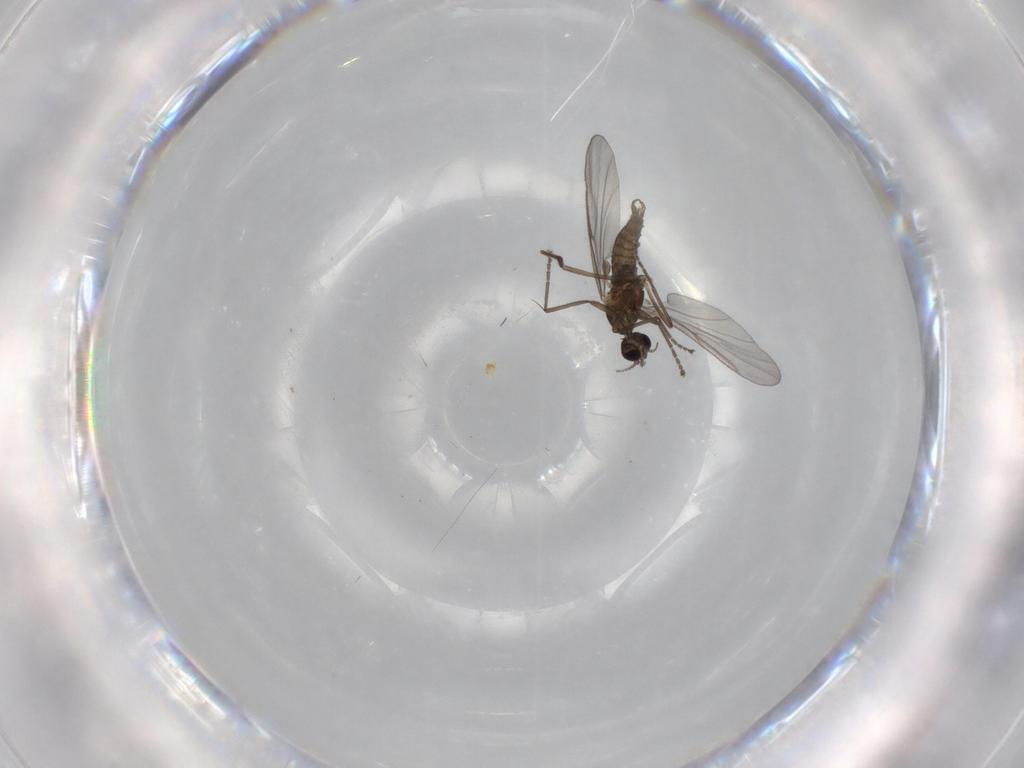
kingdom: Animalia
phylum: Arthropoda
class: Insecta
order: Diptera
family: Cecidomyiidae
